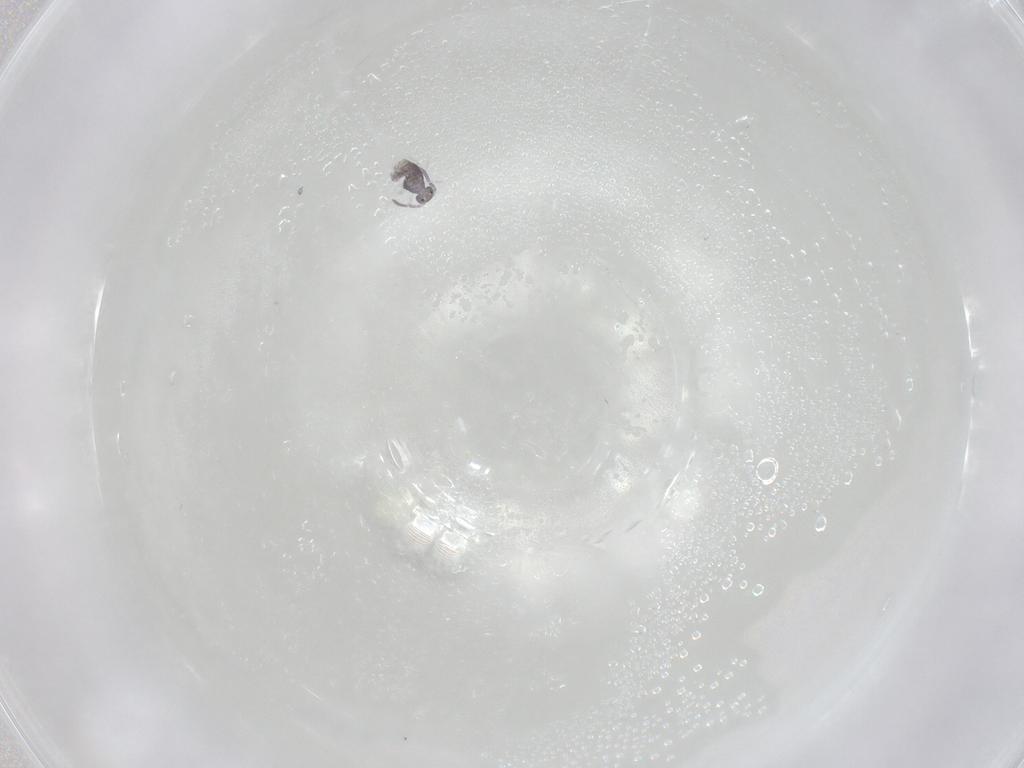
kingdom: Animalia
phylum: Arthropoda
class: Collembola
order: Symphypleona
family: Katiannidae
